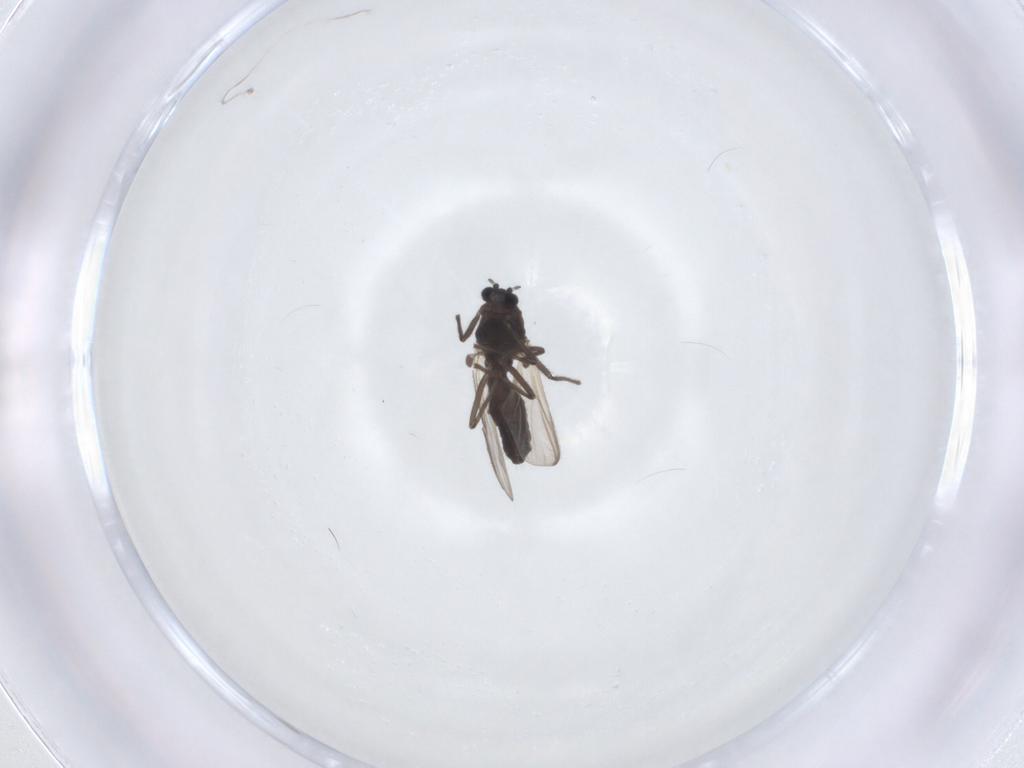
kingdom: Animalia
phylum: Arthropoda
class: Insecta
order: Diptera
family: Chironomidae
